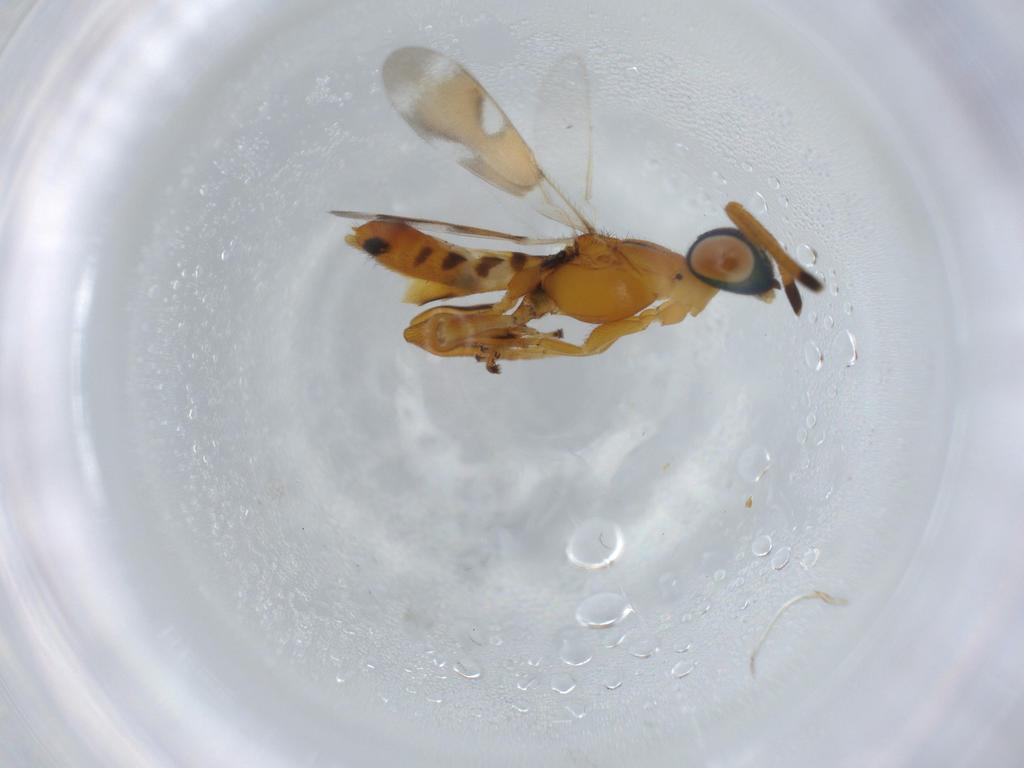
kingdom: Animalia
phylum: Arthropoda
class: Insecta
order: Hymenoptera
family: Eupelmidae
